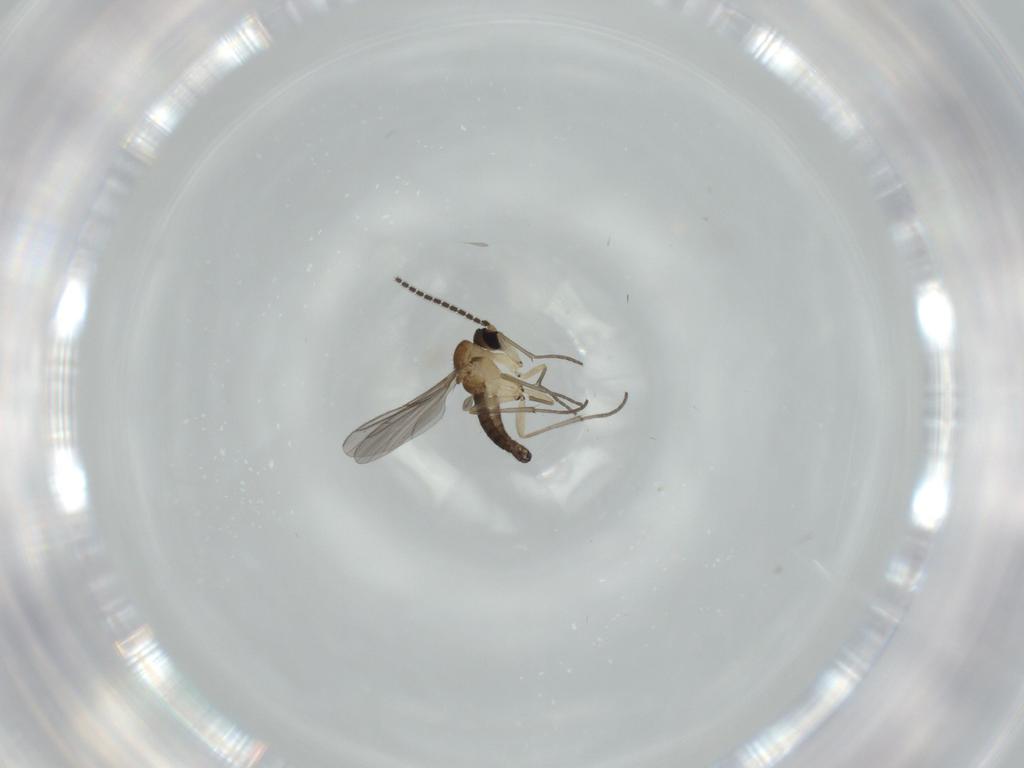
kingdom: Animalia
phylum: Arthropoda
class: Insecta
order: Diptera
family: Sciaridae
